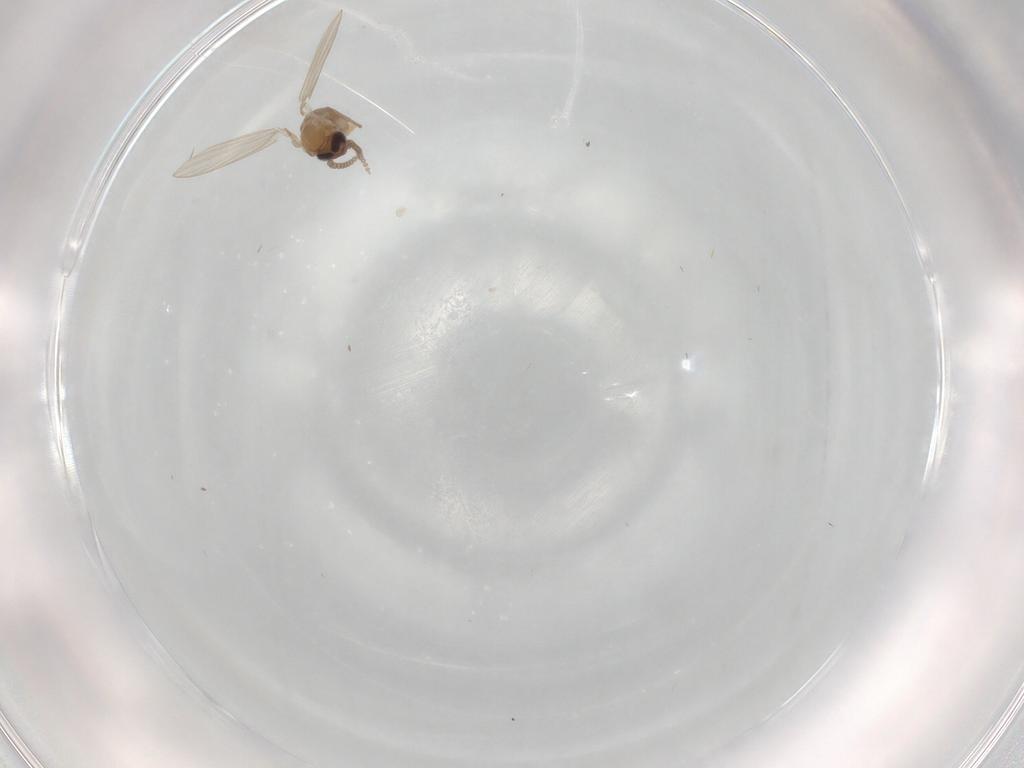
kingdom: Animalia
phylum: Arthropoda
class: Insecta
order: Diptera
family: Psychodidae
